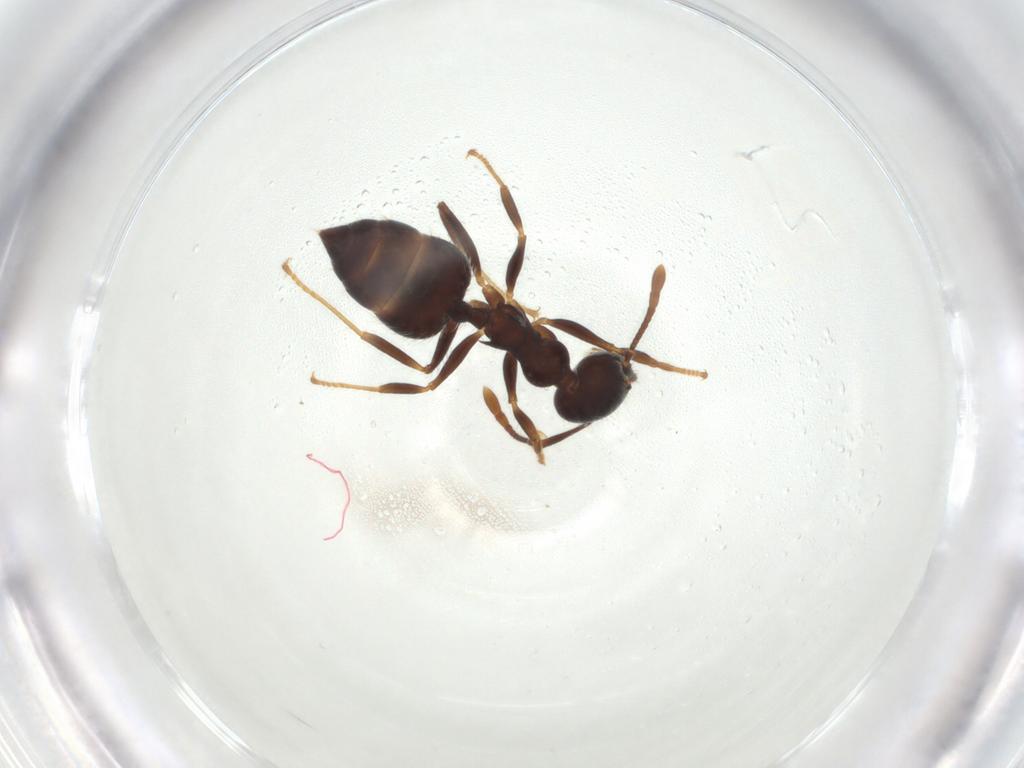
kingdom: Animalia
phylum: Arthropoda
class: Insecta
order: Hymenoptera
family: Formicidae
